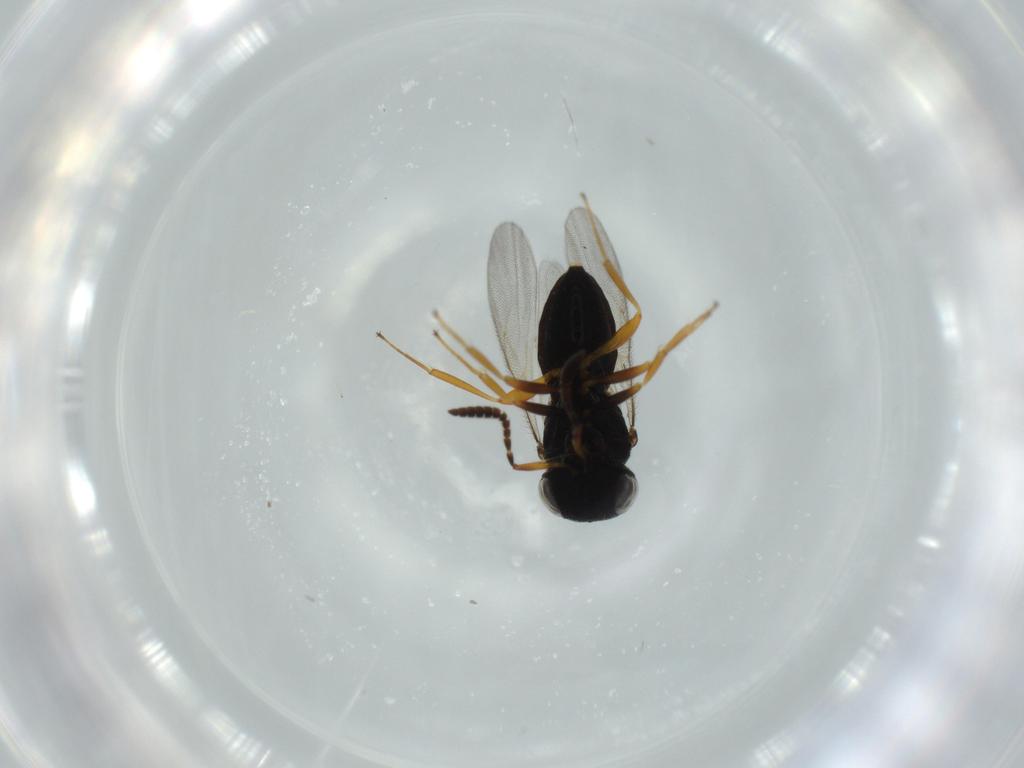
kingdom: Animalia
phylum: Arthropoda
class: Insecta
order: Hymenoptera
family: Scelionidae
